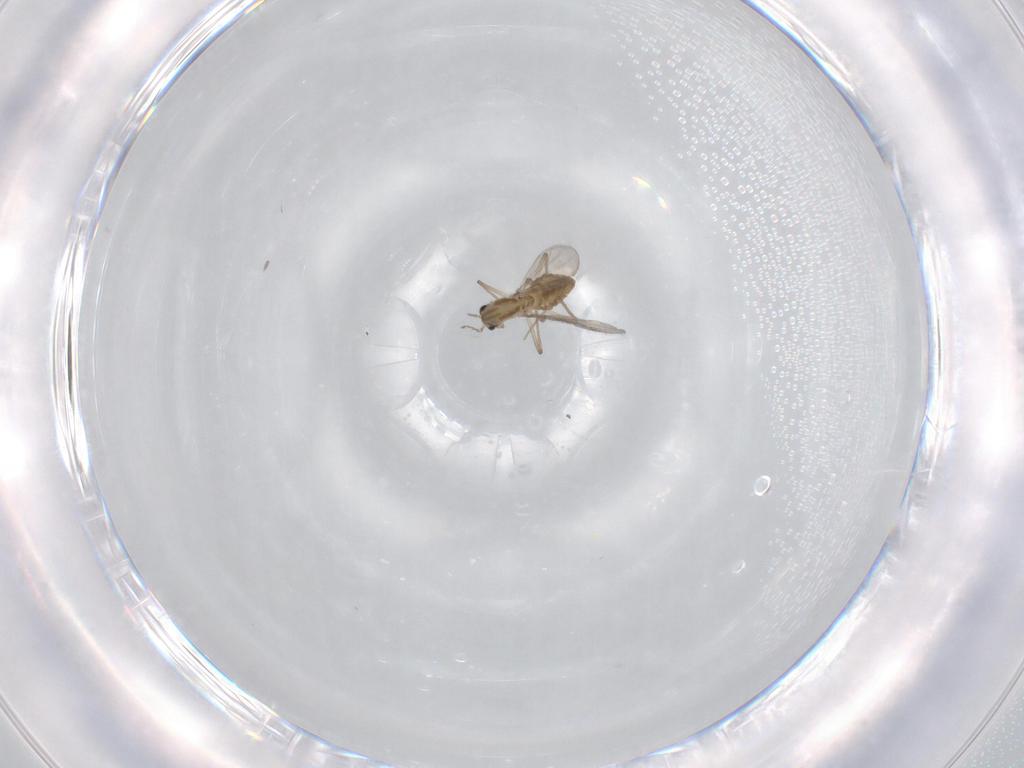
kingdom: Animalia
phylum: Arthropoda
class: Insecta
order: Diptera
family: Sciaridae
